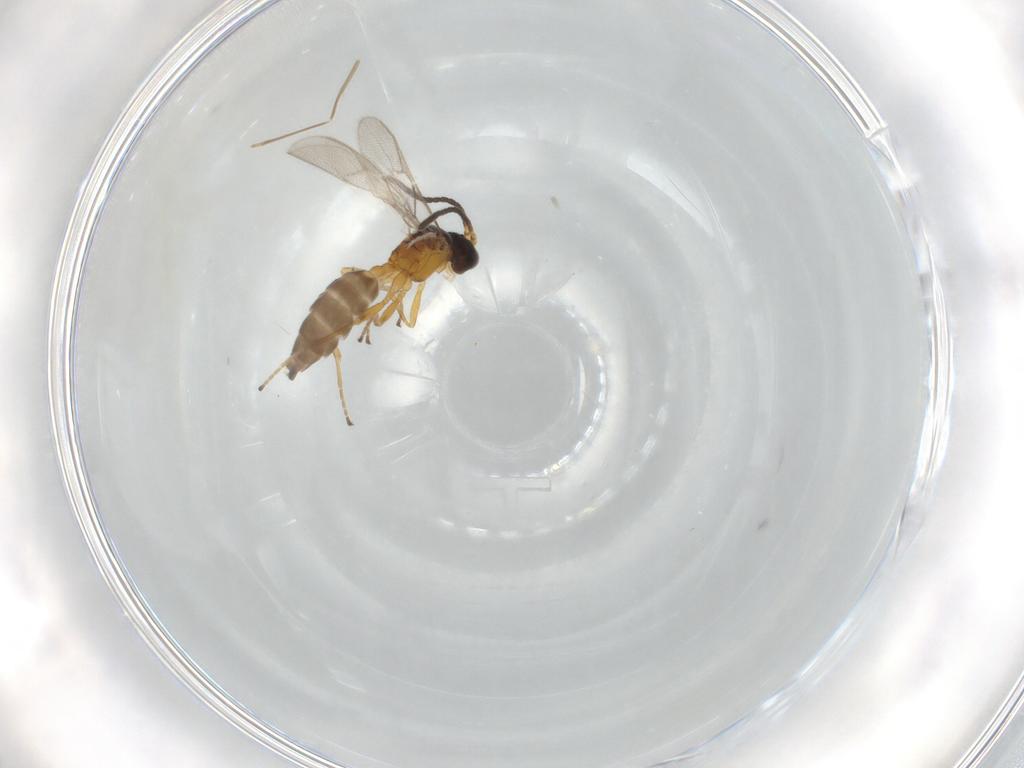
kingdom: Animalia
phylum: Arthropoda
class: Insecta
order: Hymenoptera
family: Braconidae
